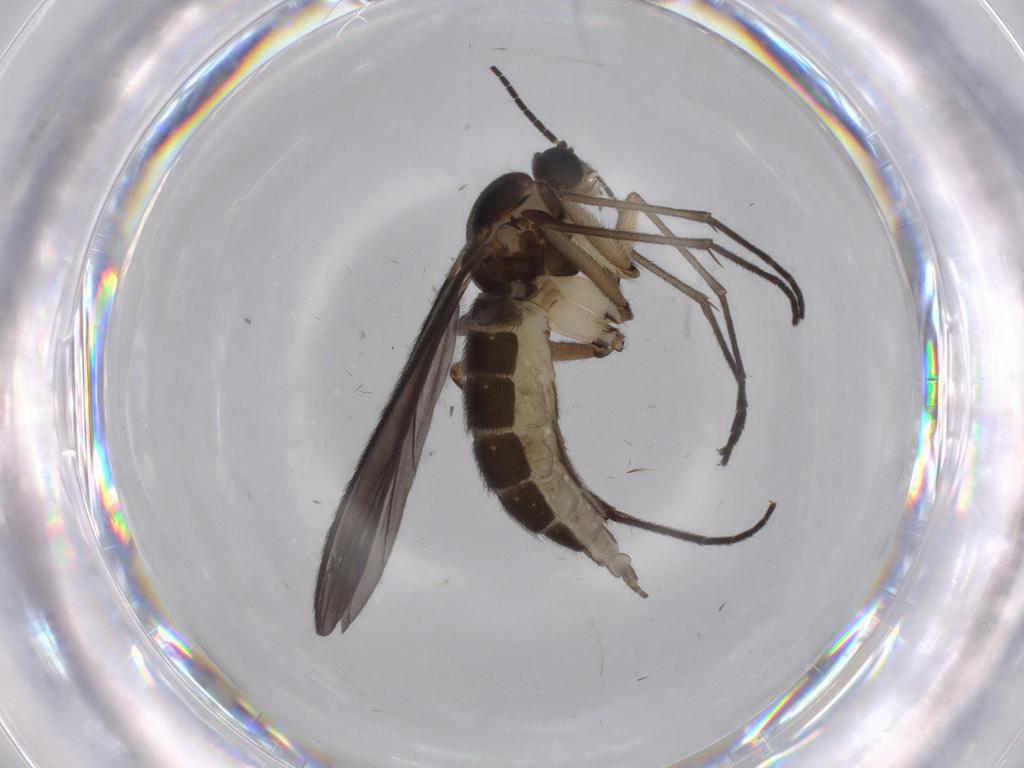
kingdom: Animalia
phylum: Arthropoda
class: Insecta
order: Diptera
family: Sciaridae
